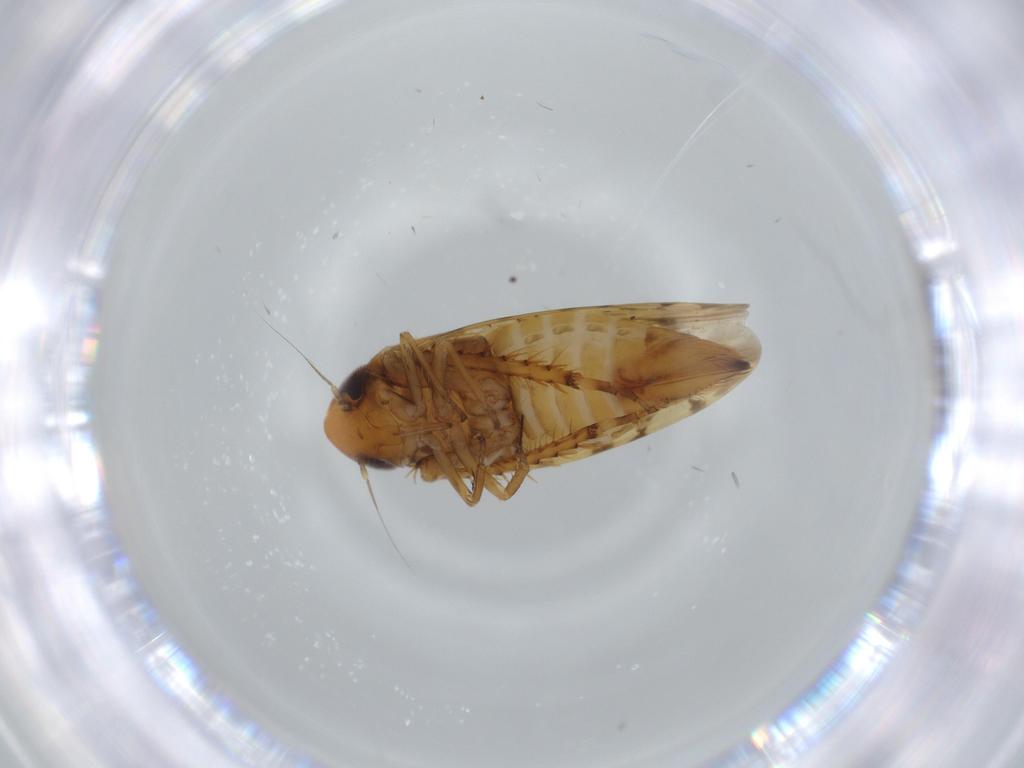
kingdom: Animalia
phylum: Arthropoda
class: Insecta
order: Hemiptera
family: Cicadellidae
